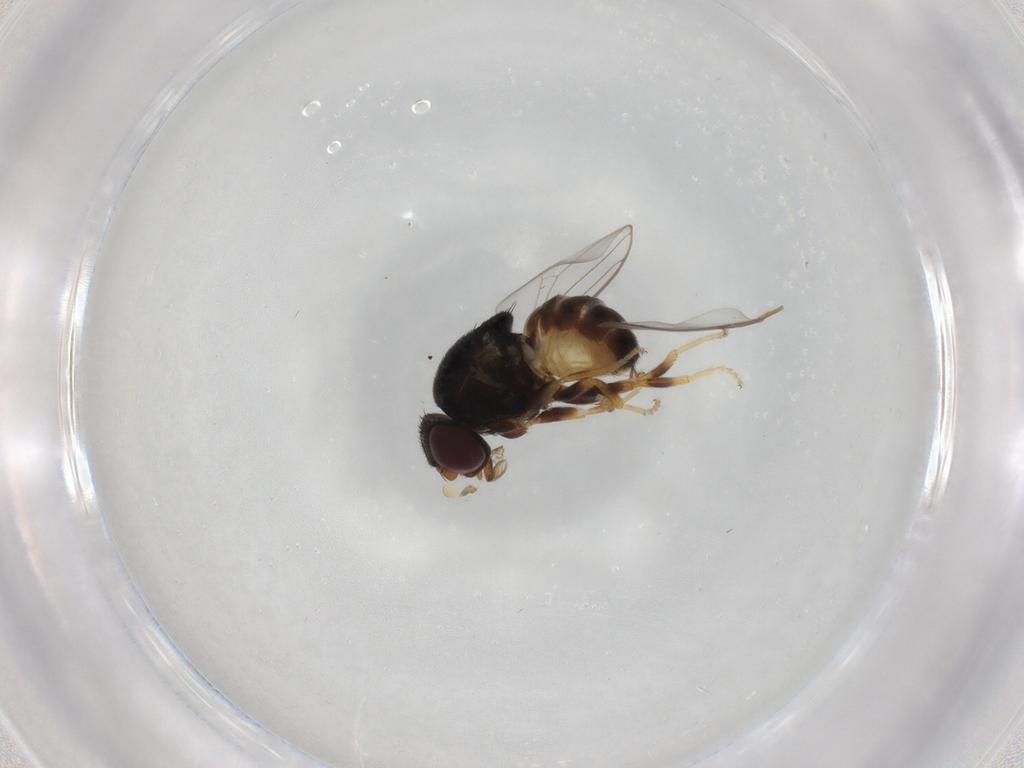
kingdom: Animalia
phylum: Arthropoda
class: Insecta
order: Diptera
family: Chloropidae
